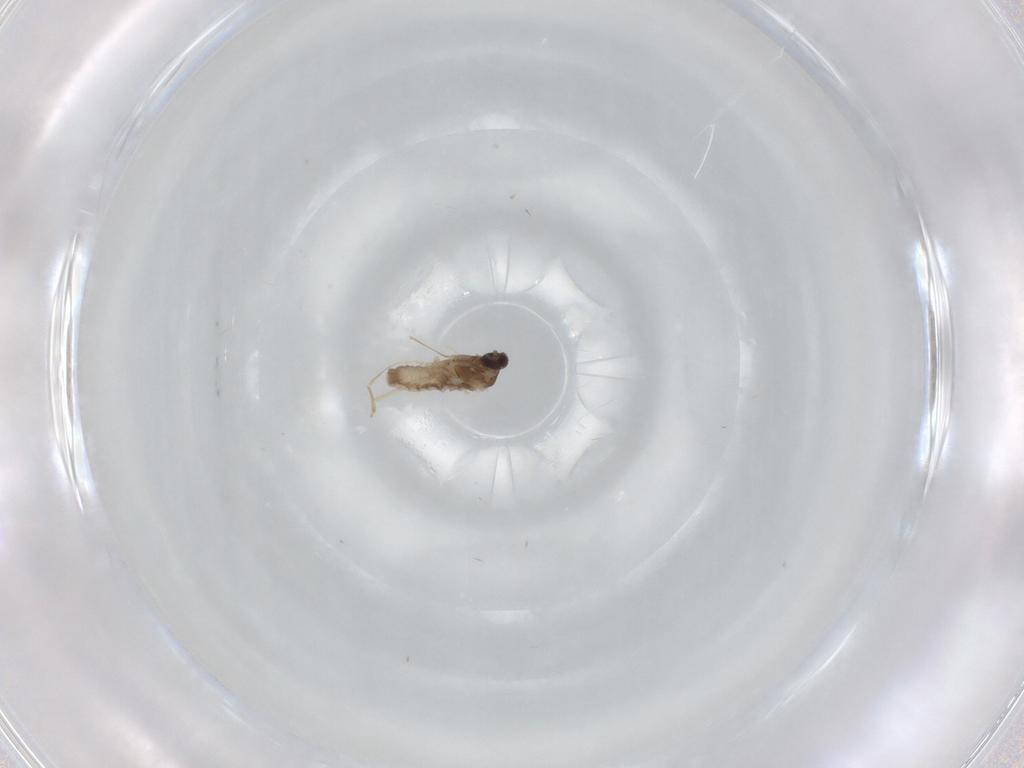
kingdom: Animalia
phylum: Arthropoda
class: Insecta
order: Diptera
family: Cecidomyiidae
